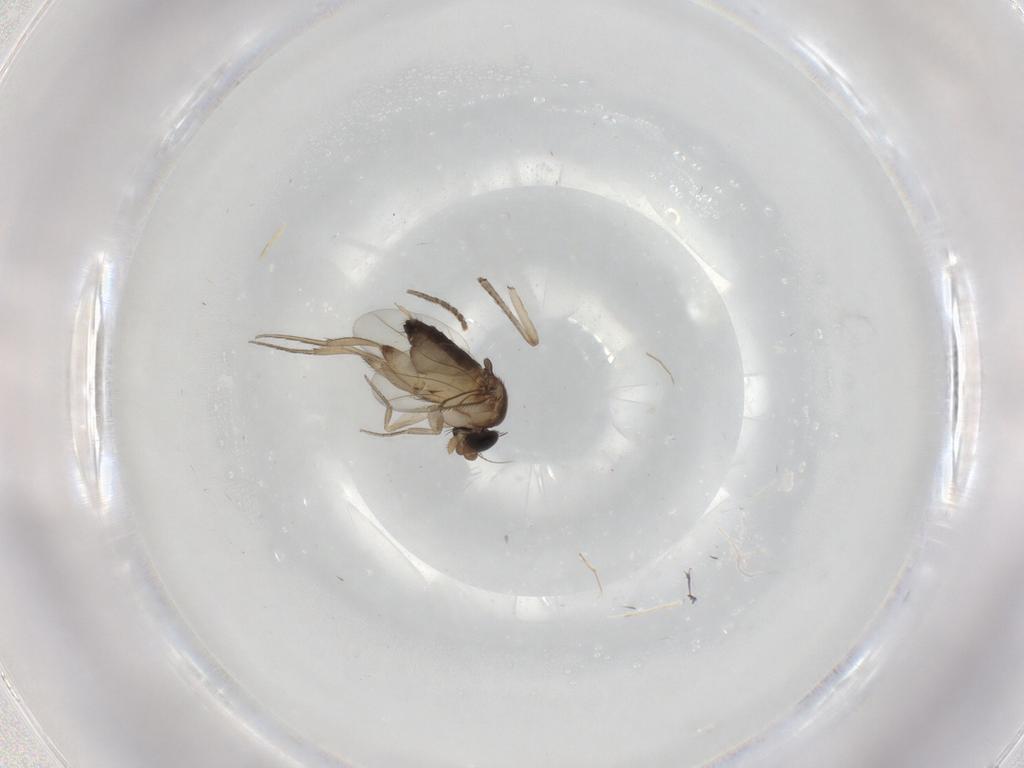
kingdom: Animalia
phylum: Arthropoda
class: Insecta
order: Diptera
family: Phoridae
